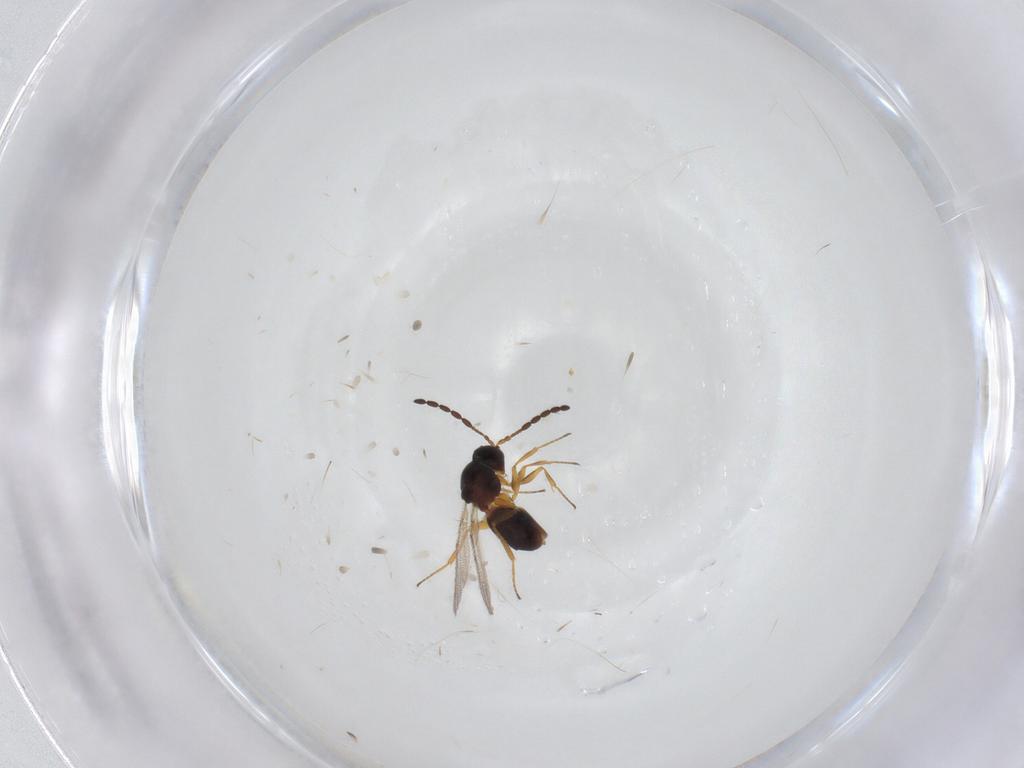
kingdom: Animalia
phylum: Arthropoda
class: Insecta
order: Hymenoptera
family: Figitidae
